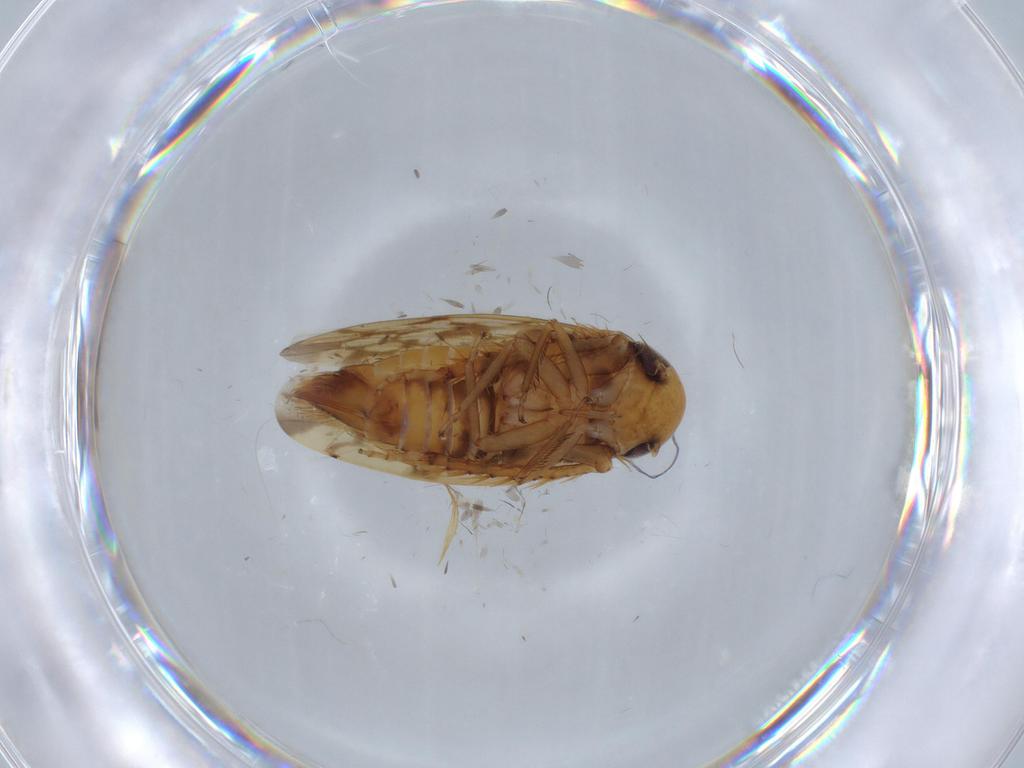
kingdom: Animalia
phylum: Arthropoda
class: Insecta
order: Hemiptera
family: Cicadellidae
